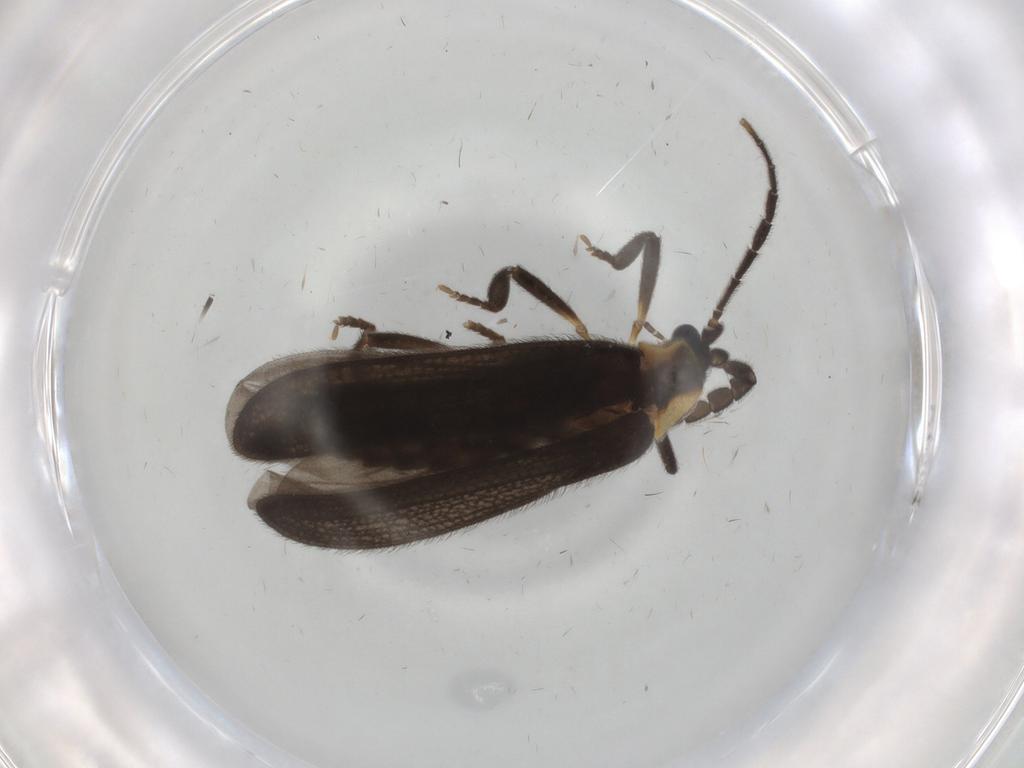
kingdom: Animalia
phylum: Arthropoda
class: Insecta
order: Coleoptera
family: Lycidae
